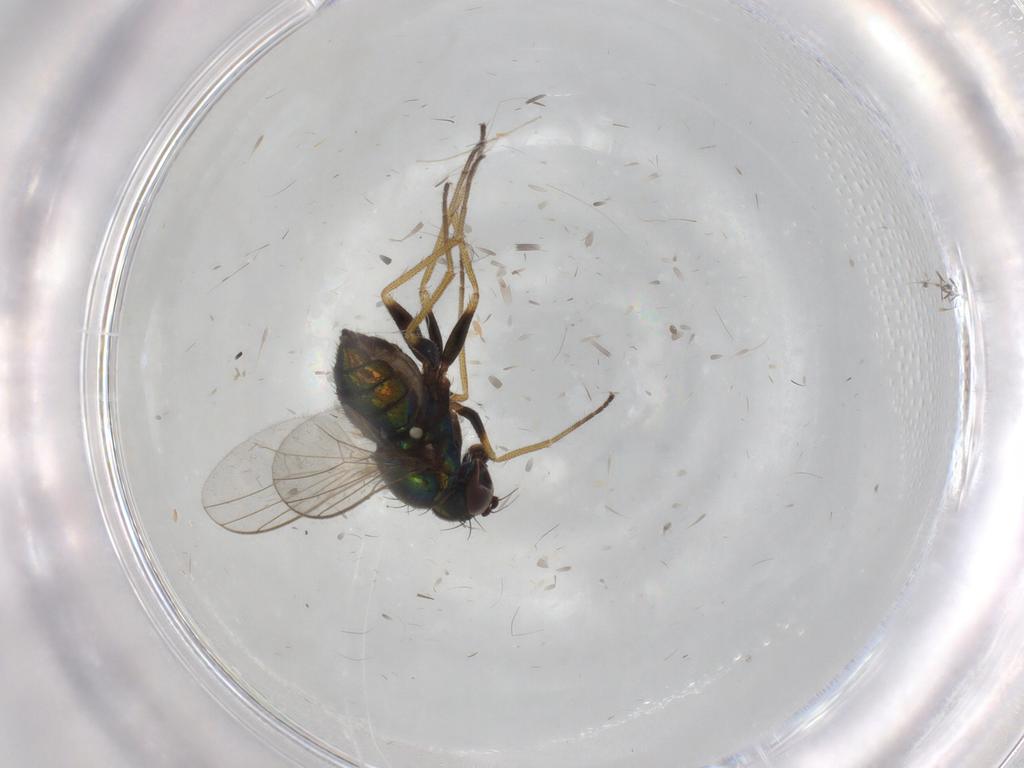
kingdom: Animalia
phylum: Arthropoda
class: Insecta
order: Diptera
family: Dolichopodidae
